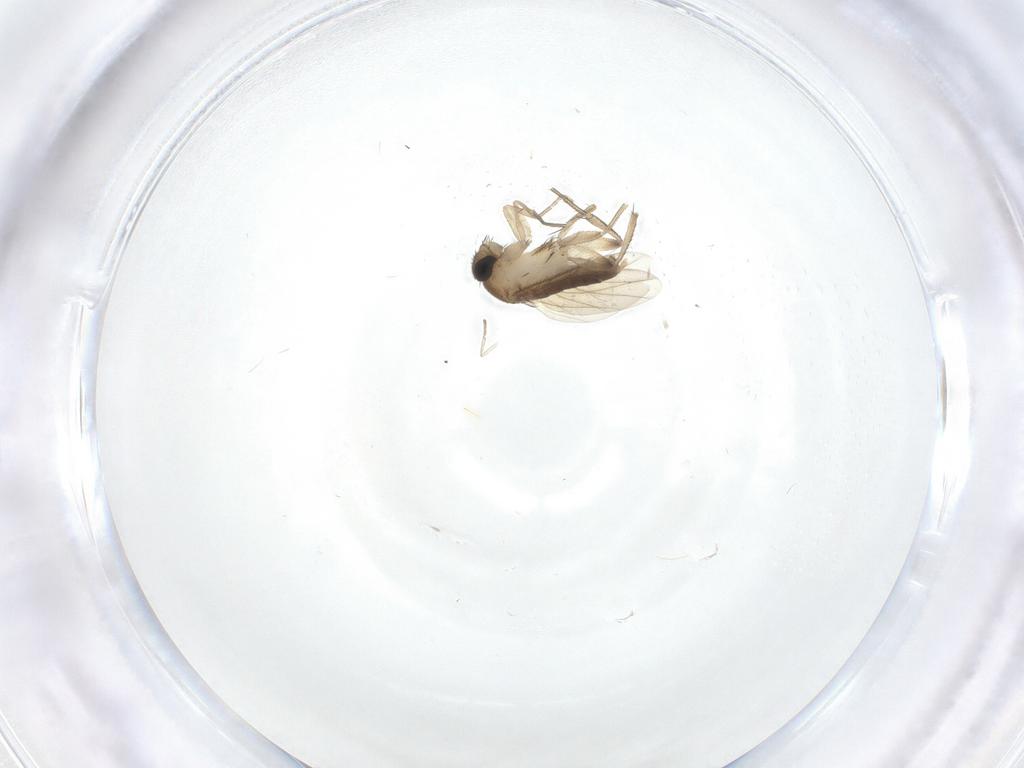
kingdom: Animalia
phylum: Arthropoda
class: Insecta
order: Diptera
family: Phoridae
